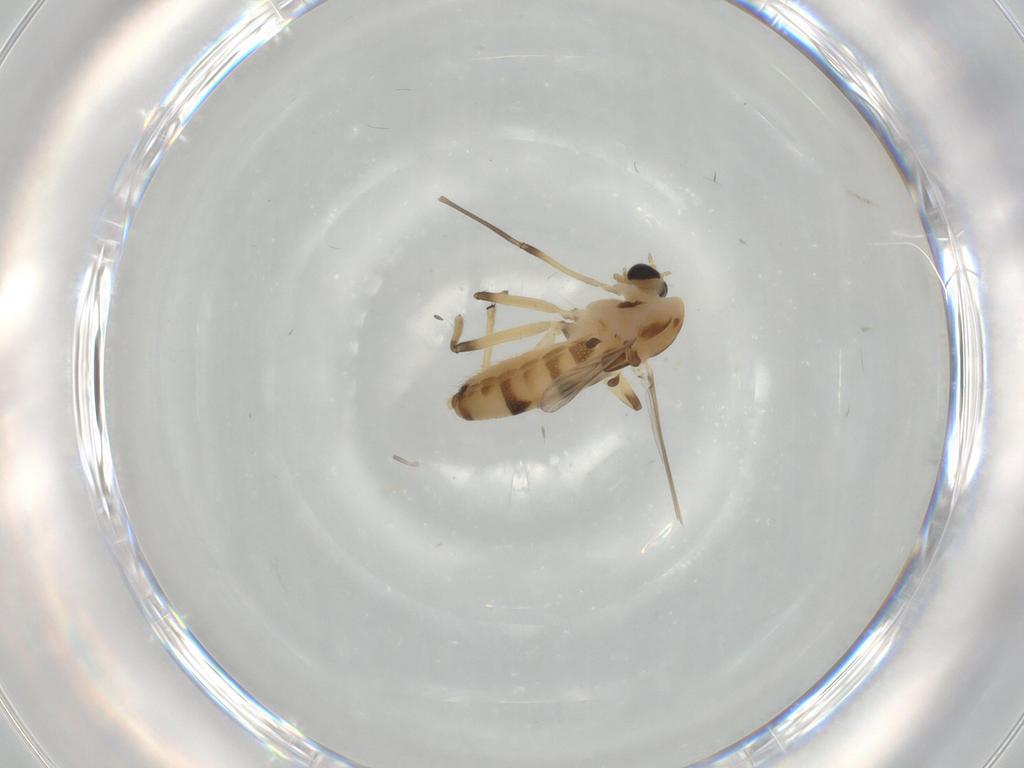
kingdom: Animalia
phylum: Arthropoda
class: Insecta
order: Diptera
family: Chironomidae
